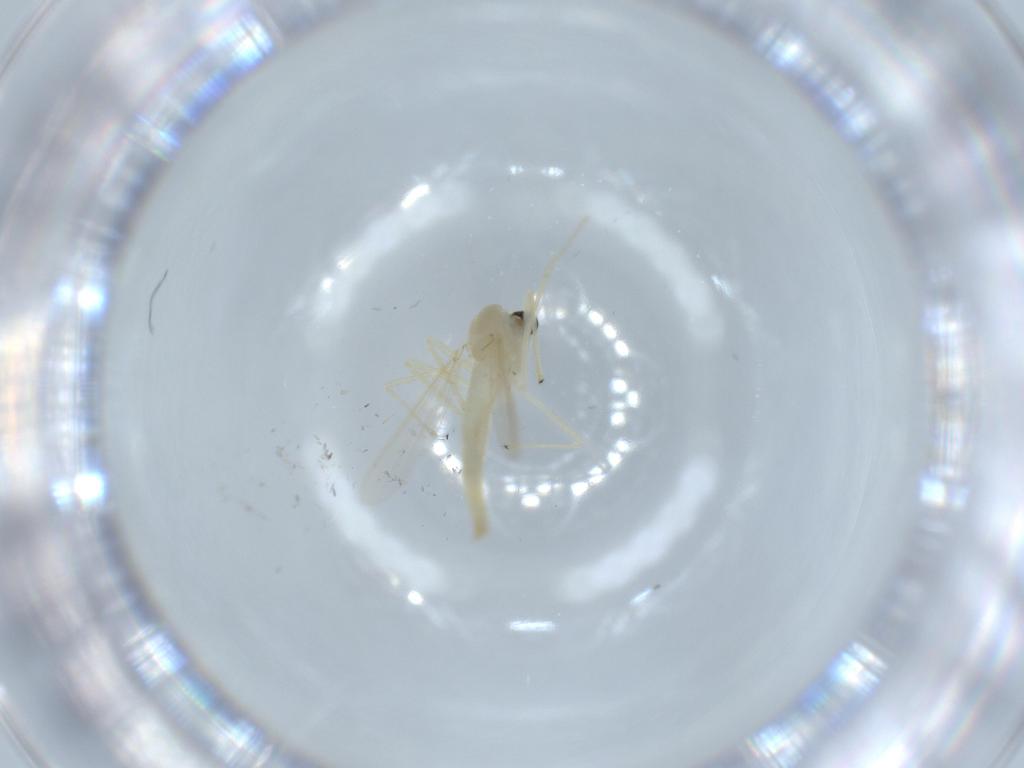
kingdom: Animalia
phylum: Arthropoda
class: Insecta
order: Diptera
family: Chironomidae
